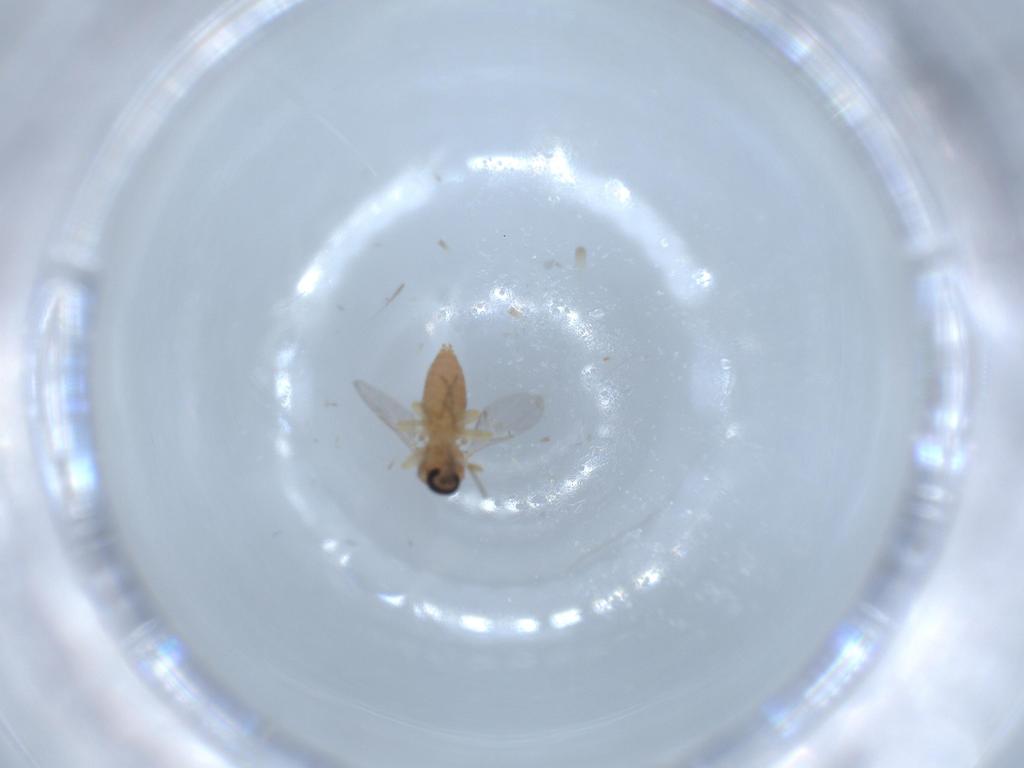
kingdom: Animalia
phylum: Arthropoda
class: Insecta
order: Diptera
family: Ceratopogonidae
